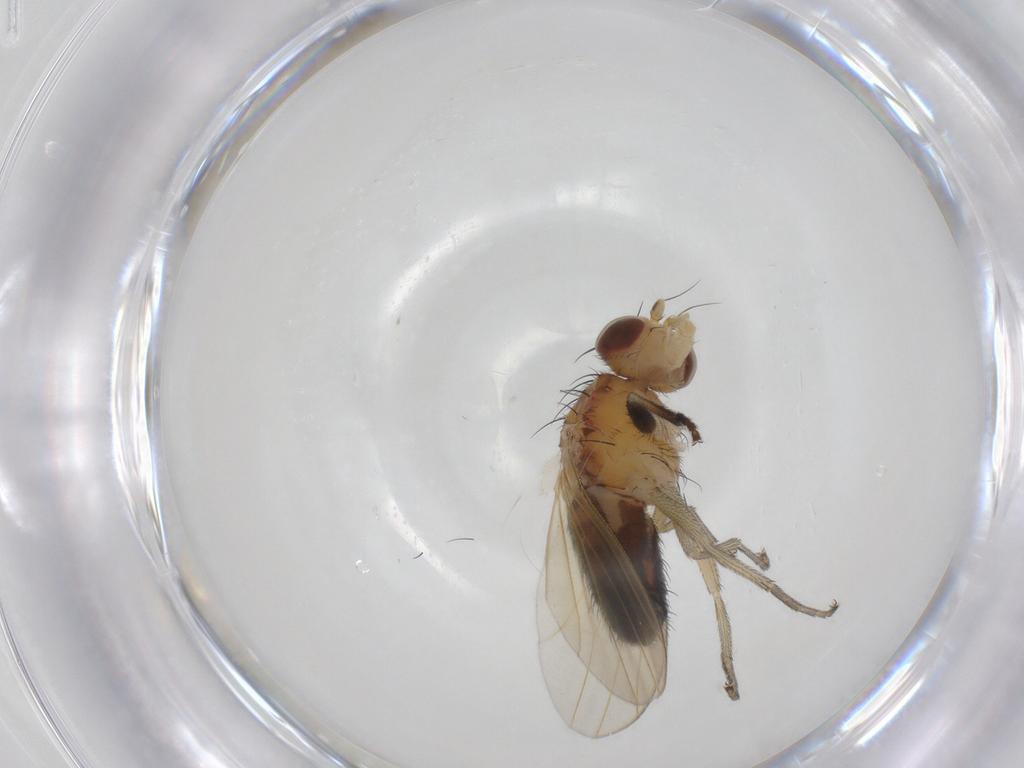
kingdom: Animalia
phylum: Arthropoda
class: Insecta
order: Diptera
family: Heleomyzidae
